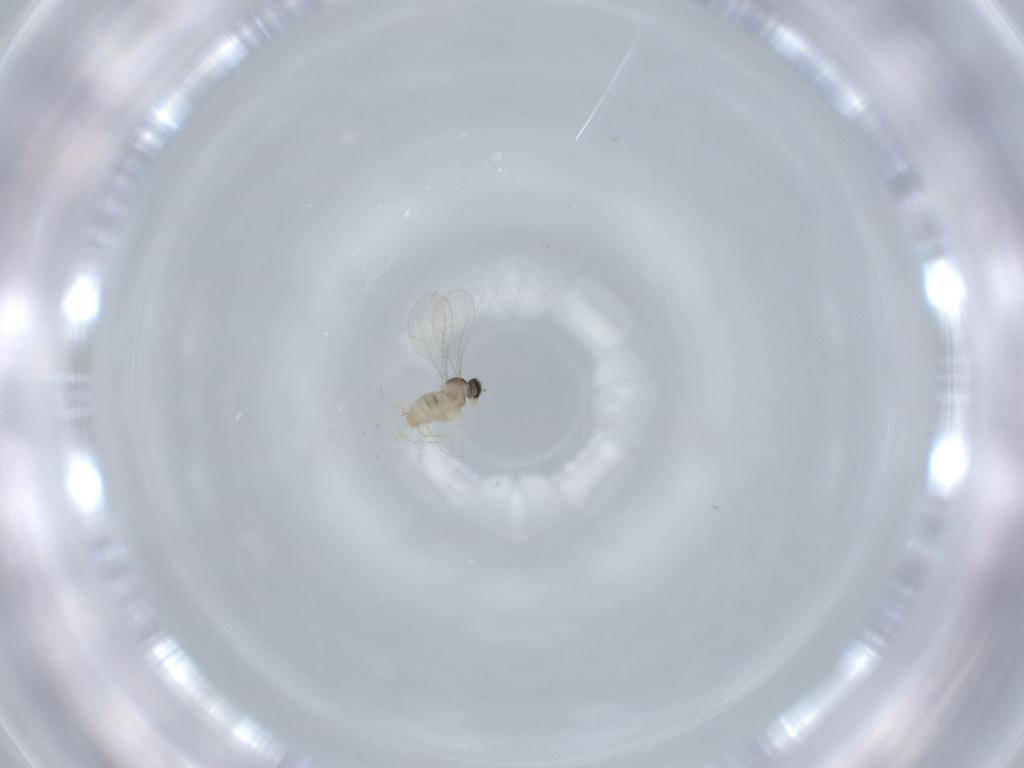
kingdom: Animalia
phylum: Arthropoda
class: Insecta
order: Diptera
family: Cecidomyiidae
